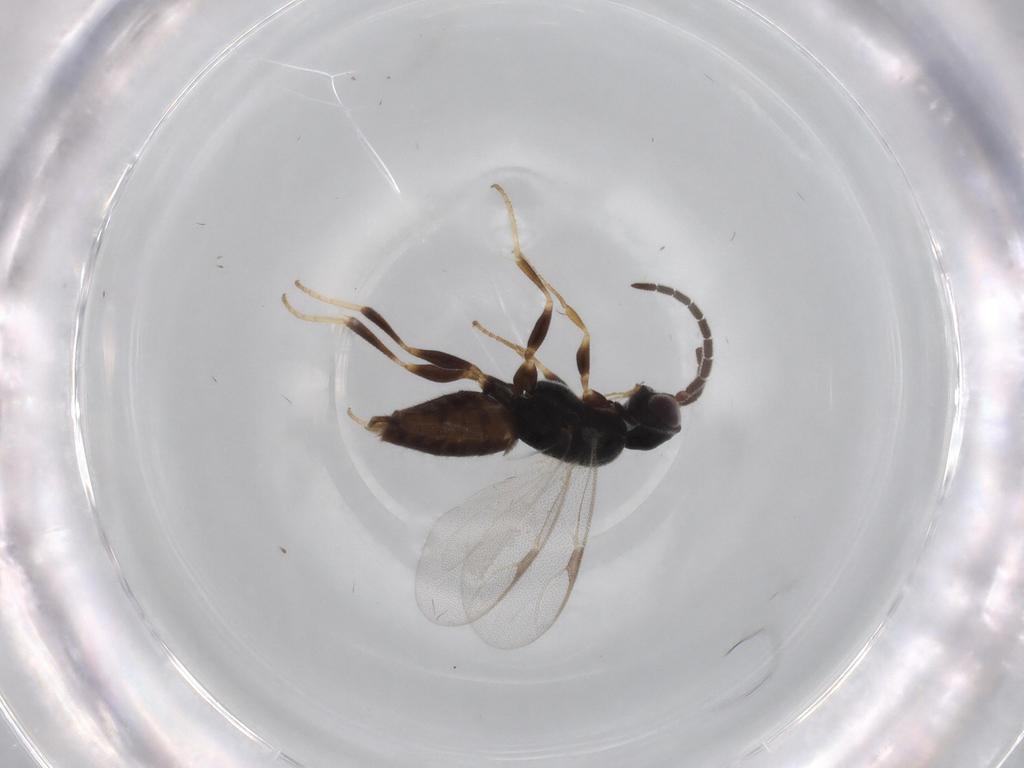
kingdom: Animalia
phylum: Arthropoda
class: Insecta
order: Hymenoptera
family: Dryinidae
